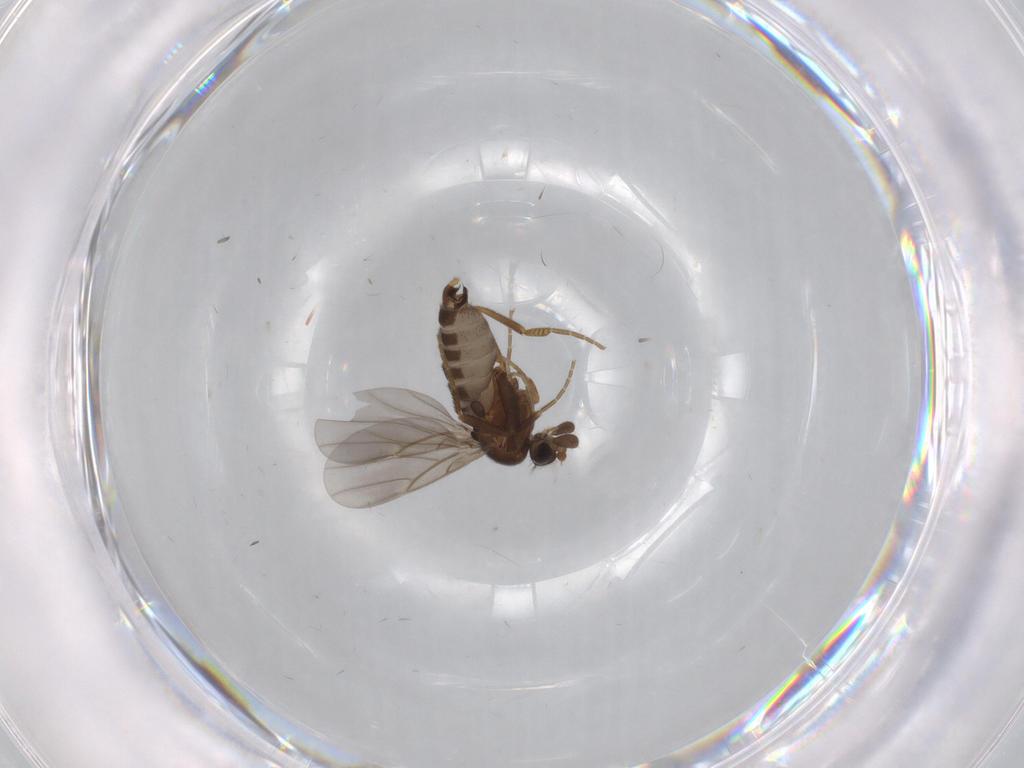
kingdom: Animalia
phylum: Arthropoda
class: Insecta
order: Diptera
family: Phoridae
